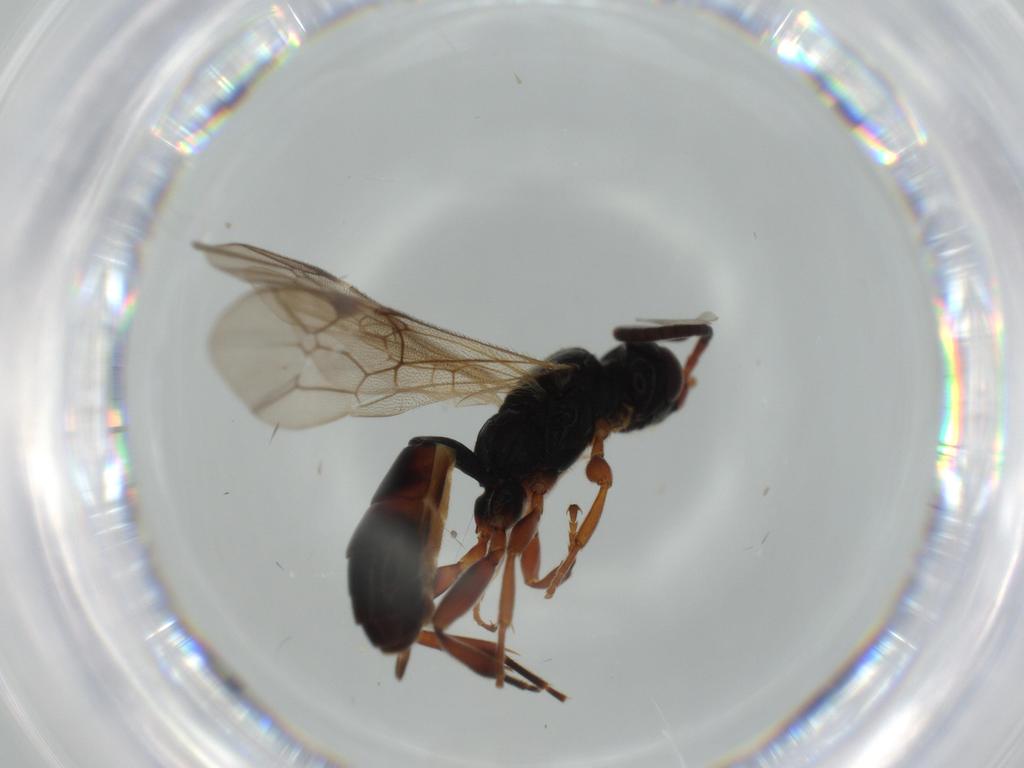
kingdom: Animalia
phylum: Arthropoda
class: Insecta
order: Hymenoptera
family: Ichneumonidae
